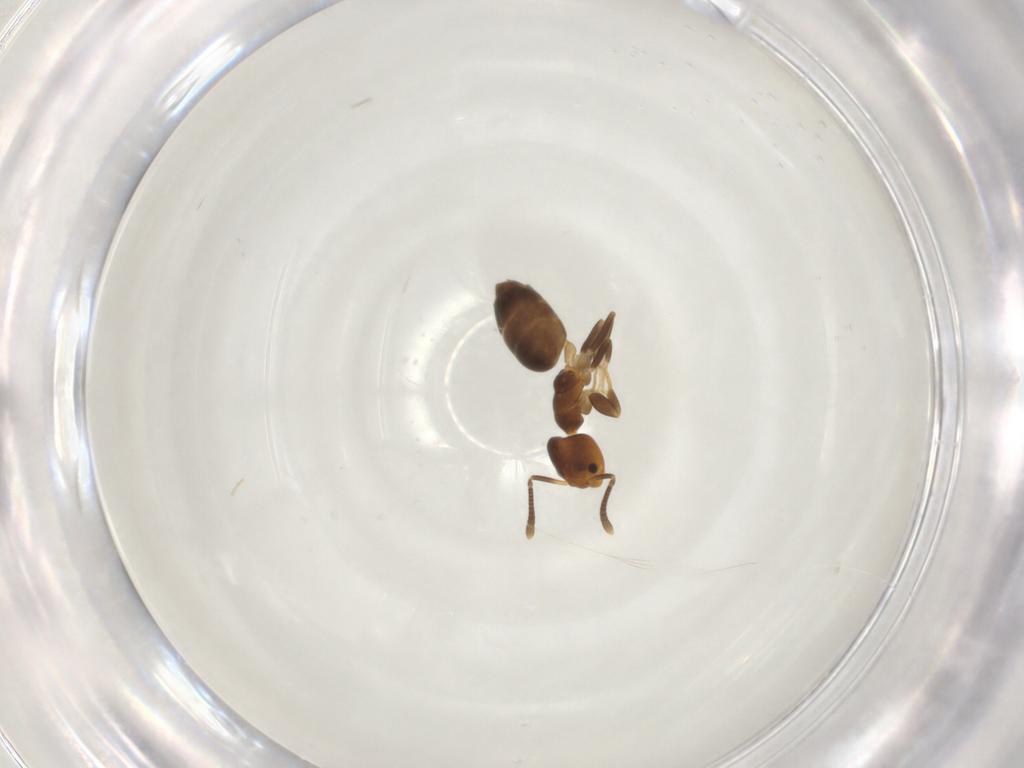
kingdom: Animalia
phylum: Arthropoda
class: Insecta
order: Hymenoptera
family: Formicidae
